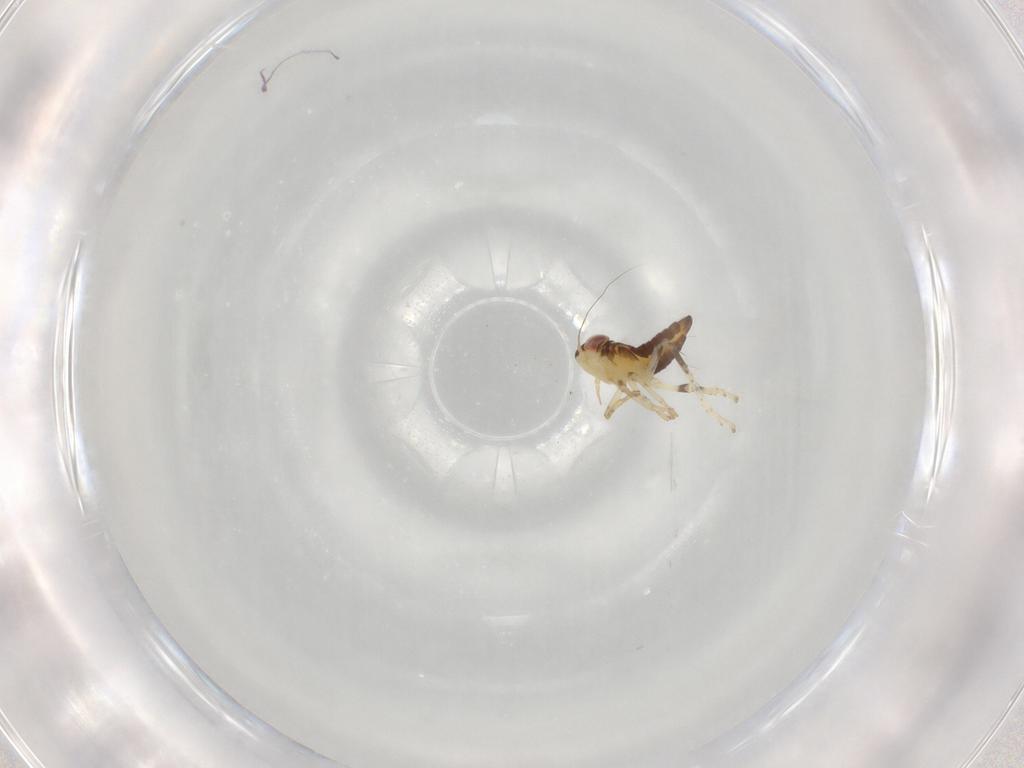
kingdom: Animalia
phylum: Arthropoda
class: Insecta
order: Hemiptera
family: Cicadellidae
